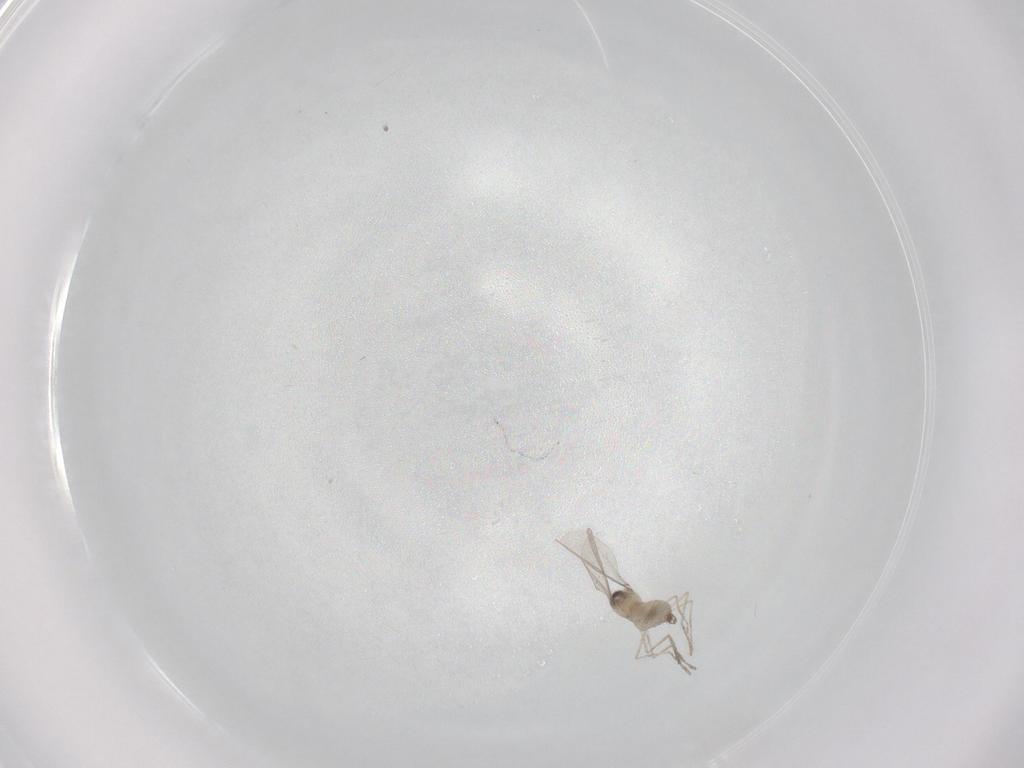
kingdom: Animalia
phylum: Arthropoda
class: Insecta
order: Diptera
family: Cecidomyiidae
